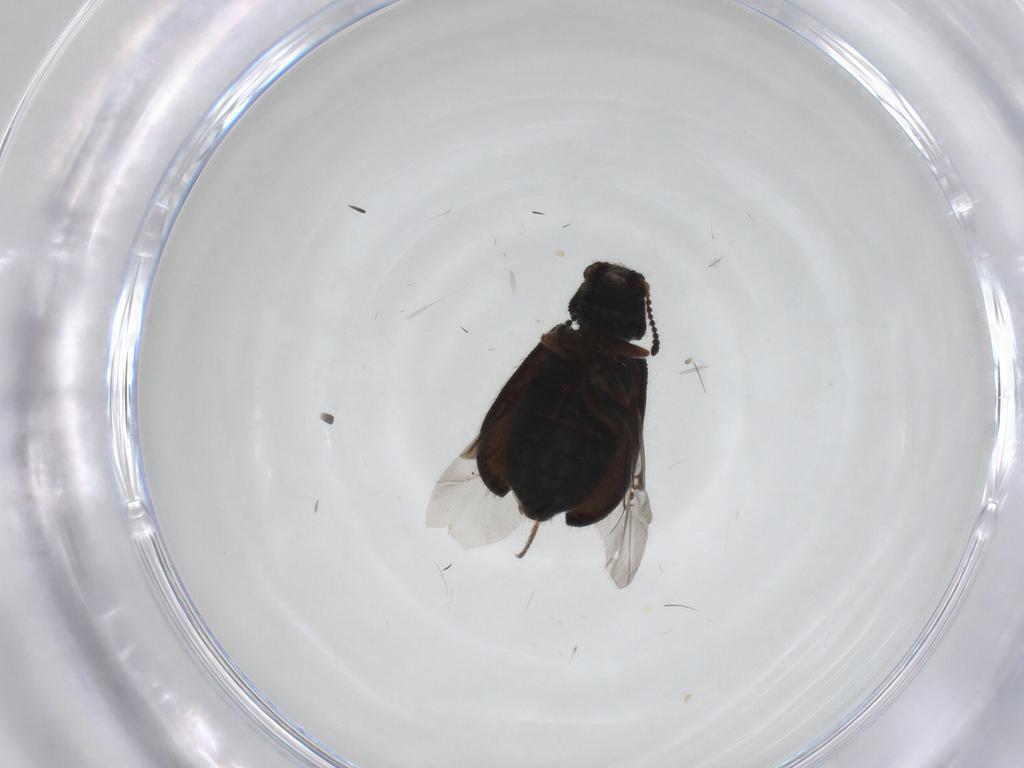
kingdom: Animalia
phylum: Arthropoda
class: Insecta
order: Coleoptera
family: Melyridae
